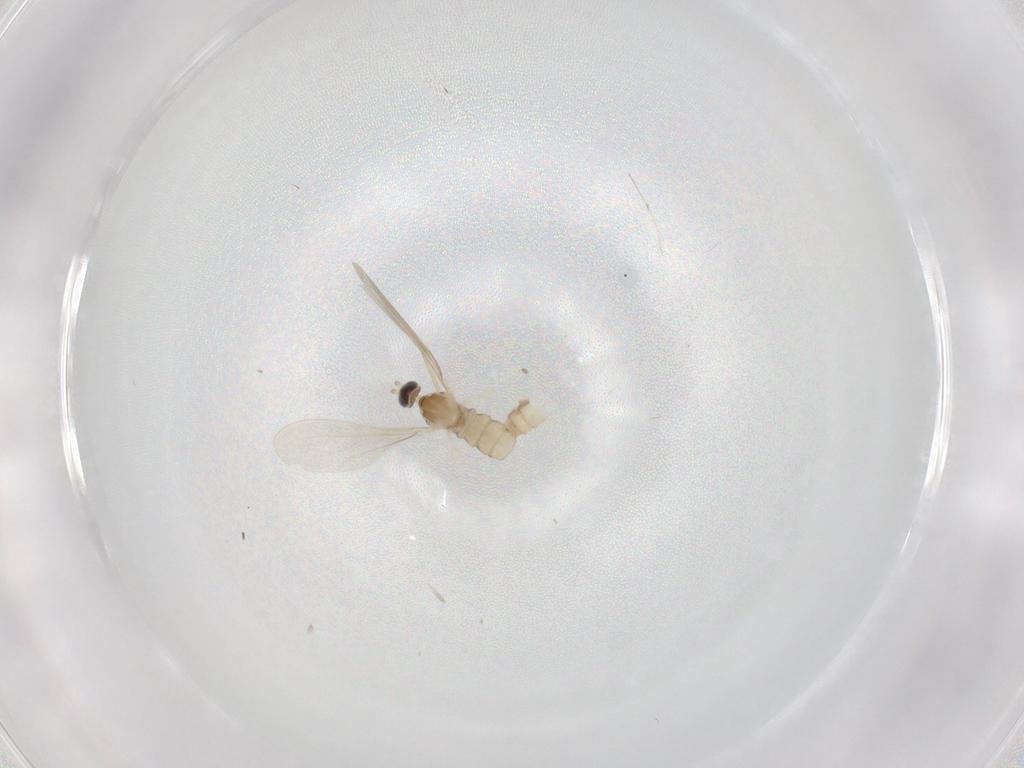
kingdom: Animalia
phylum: Arthropoda
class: Insecta
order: Diptera
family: Cecidomyiidae
